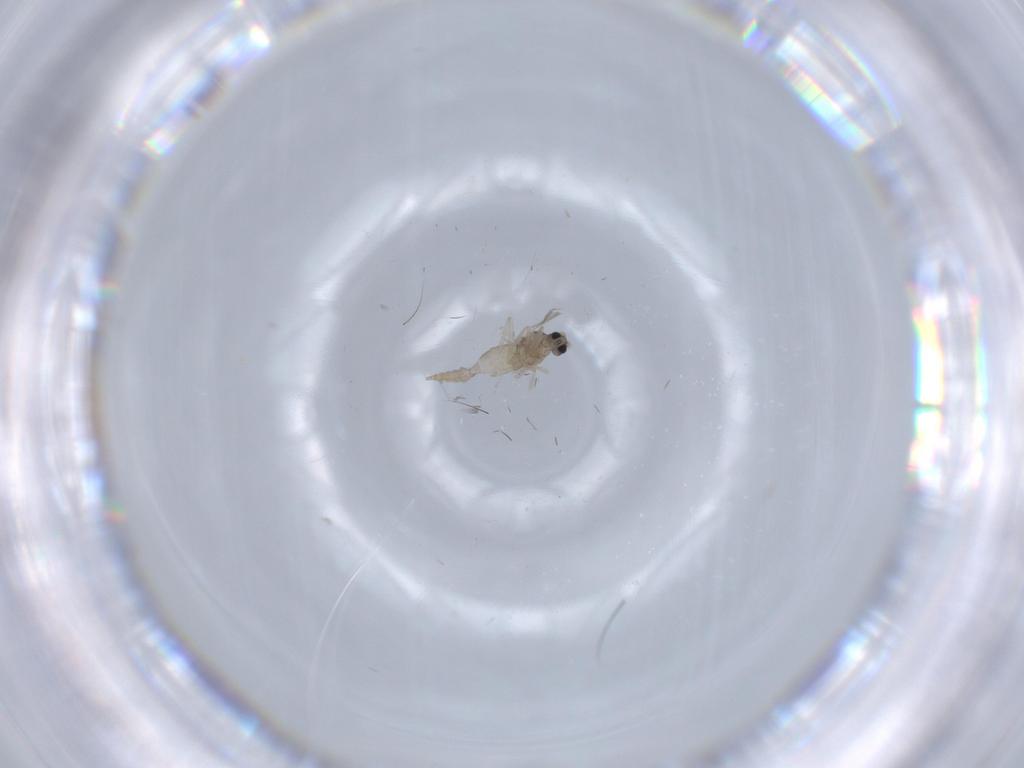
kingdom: Animalia
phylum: Arthropoda
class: Insecta
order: Diptera
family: Cecidomyiidae
